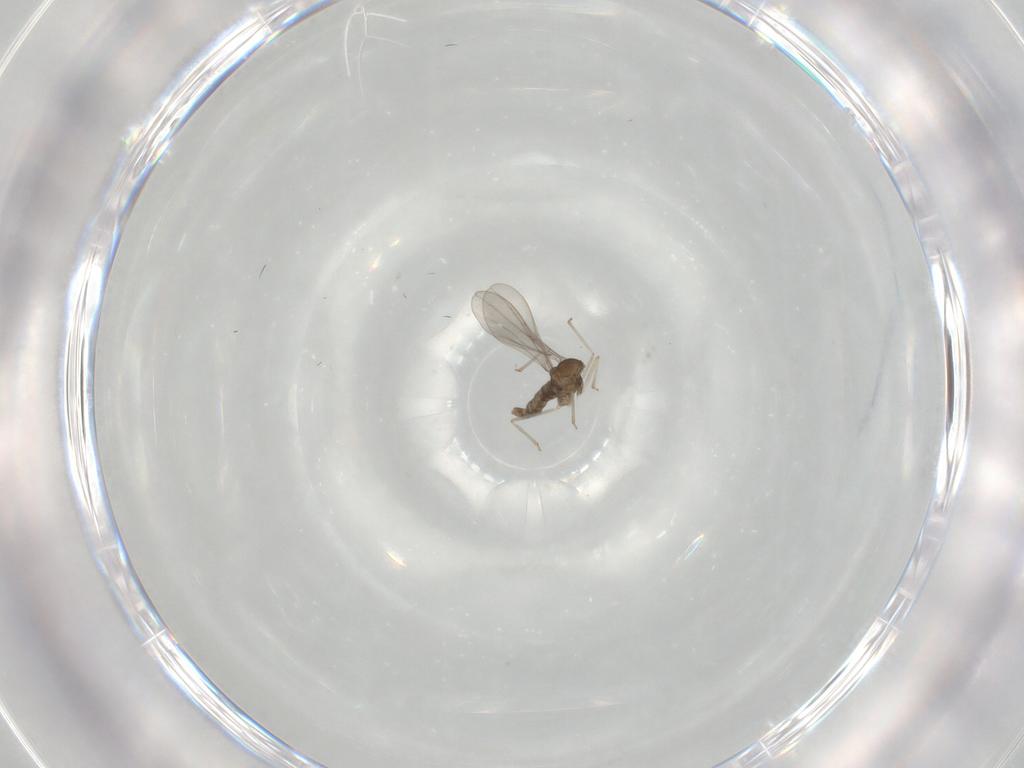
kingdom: Animalia
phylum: Arthropoda
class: Insecta
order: Diptera
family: Cecidomyiidae
